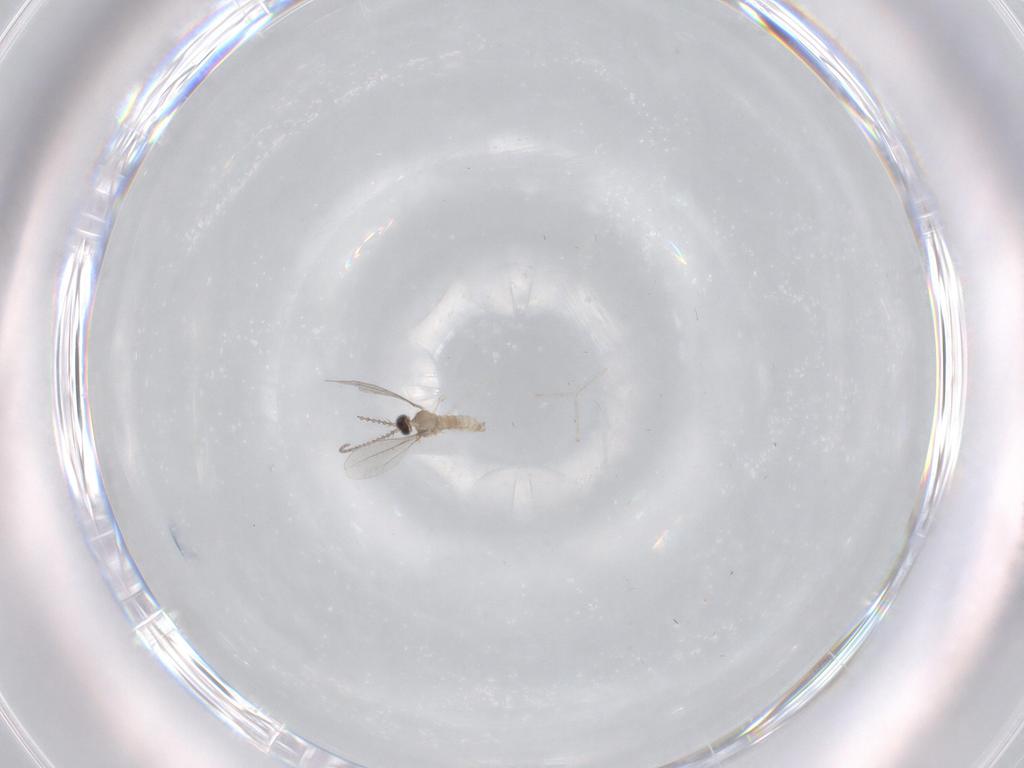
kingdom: Animalia
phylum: Arthropoda
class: Insecta
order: Diptera
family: Cecidomyiidae
